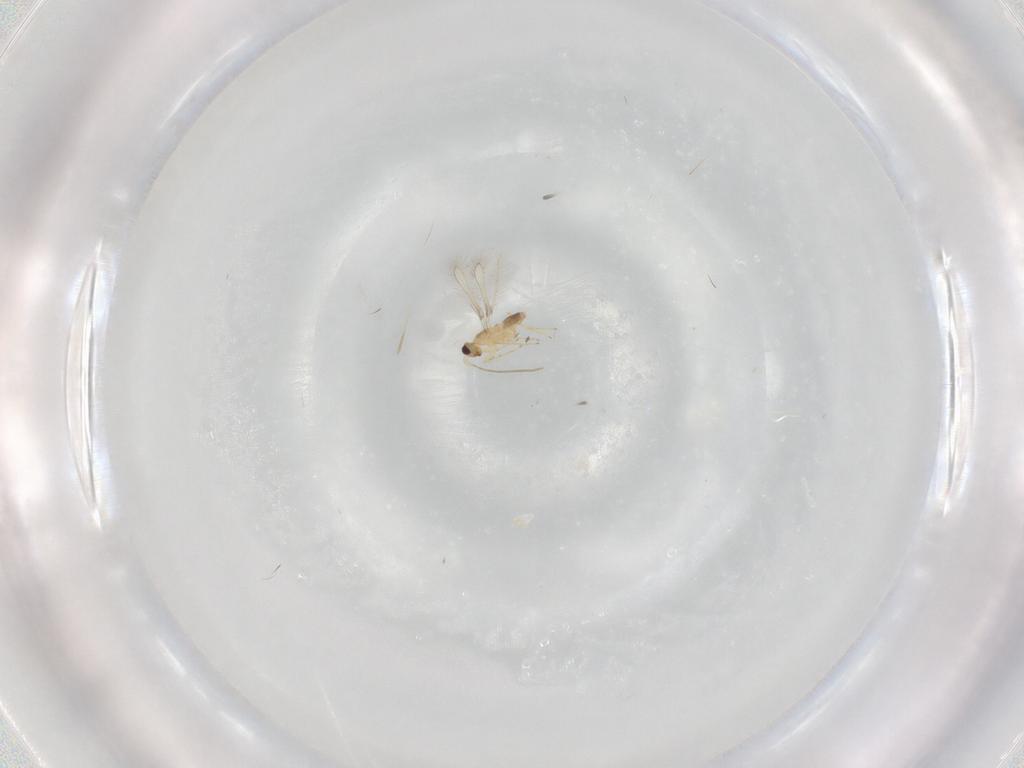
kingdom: Animalia
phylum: Arthropoda
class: Insecta
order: Hymenoptera
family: Mymaridae
